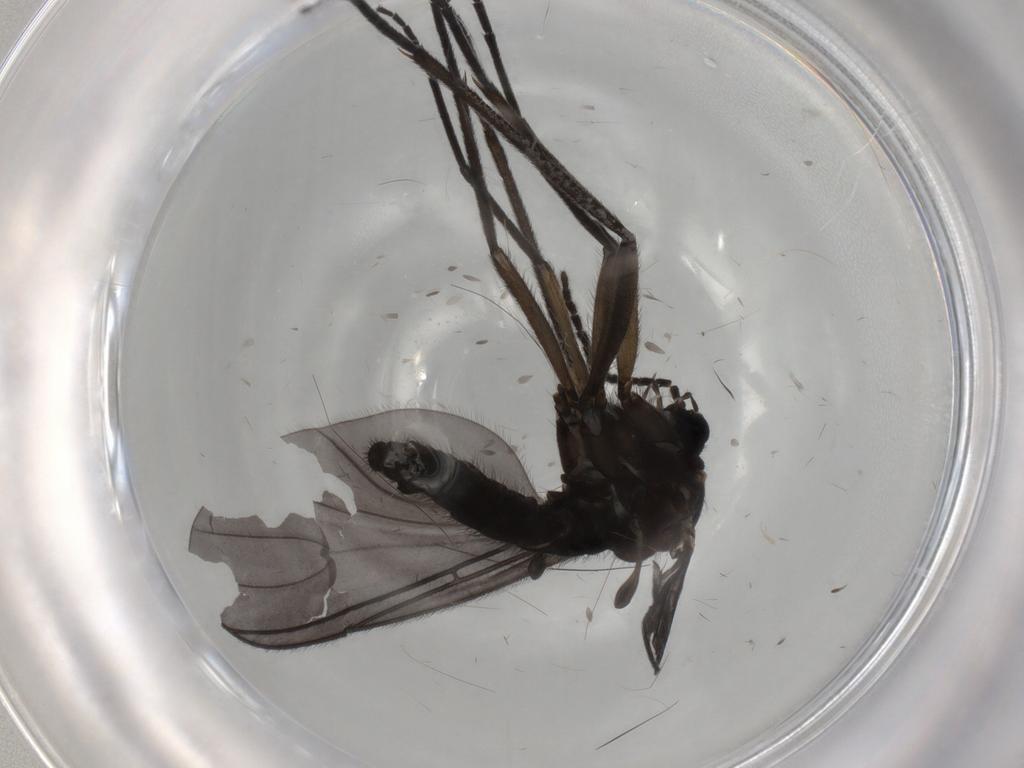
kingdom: Animalia
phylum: Arthropoda
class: Insecta
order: Diptera
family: Sciaridae
